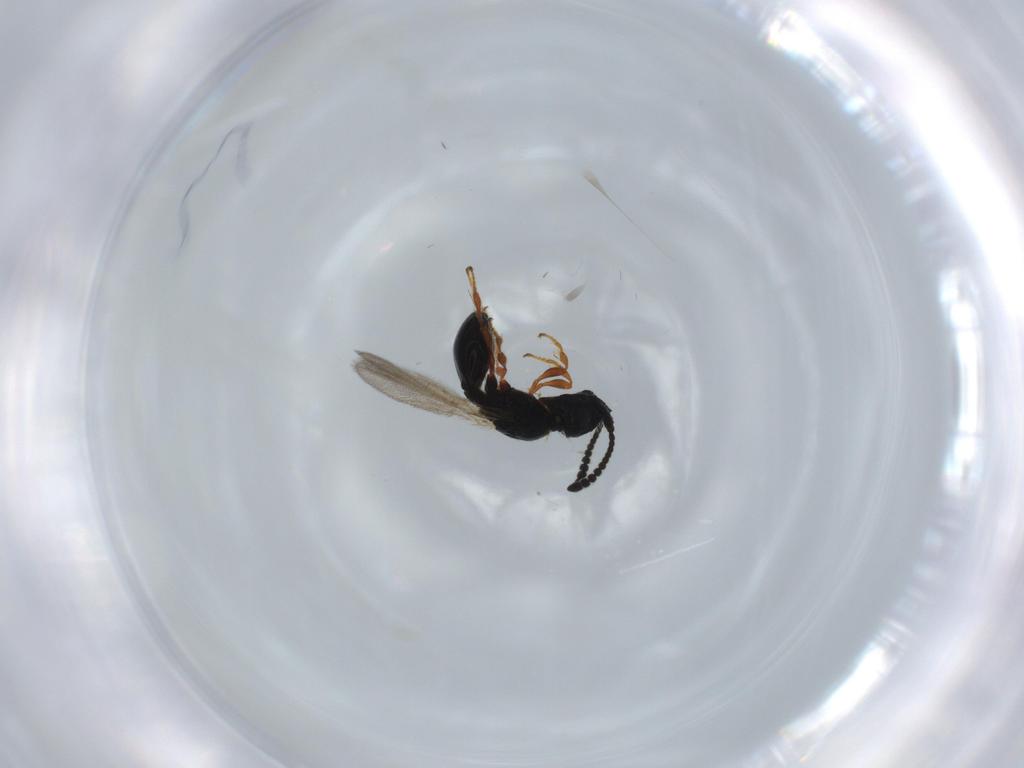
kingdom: Animalia
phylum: Arthropoda
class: Insecta
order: Hymenoptera
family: Diapriidae
